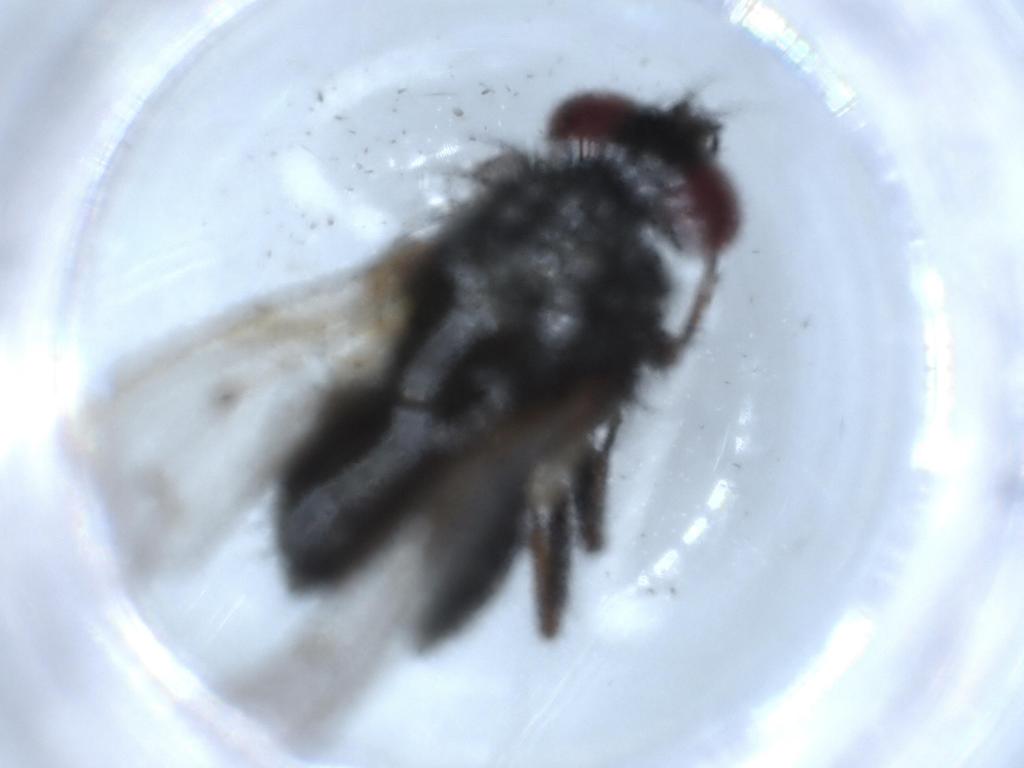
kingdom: Animalia
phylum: Arthropoda
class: Insecta
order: Diptera
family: Muscidae
